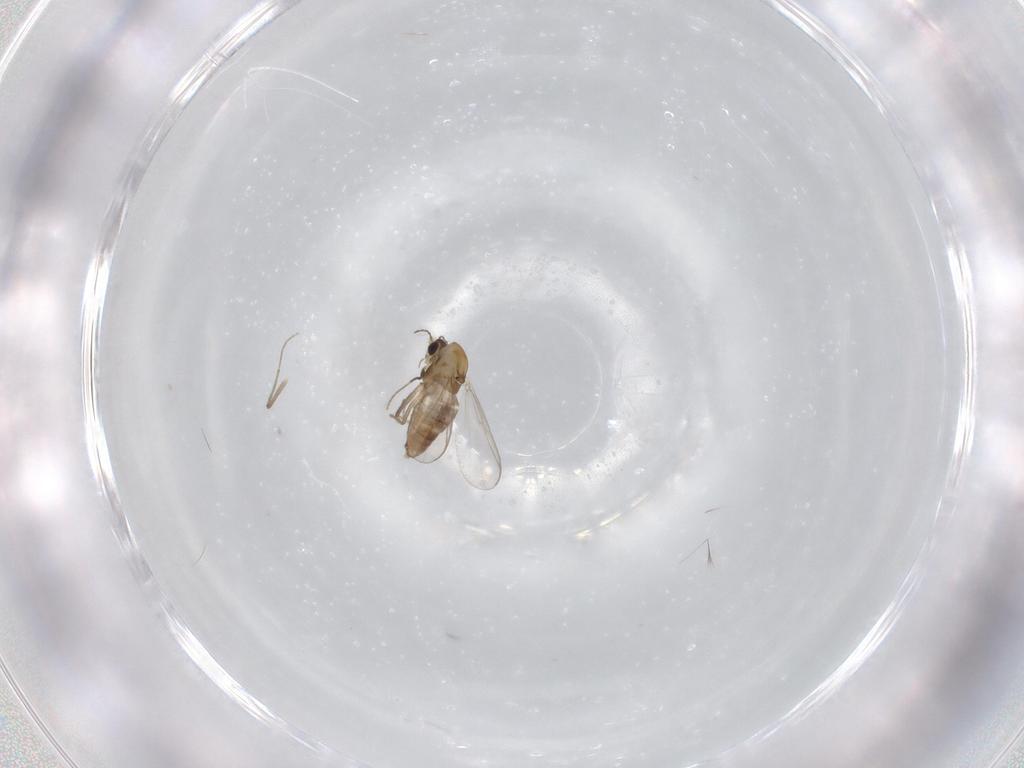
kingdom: Animalia
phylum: Arthropoda
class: Insecta
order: Diptera
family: Chironomidae
